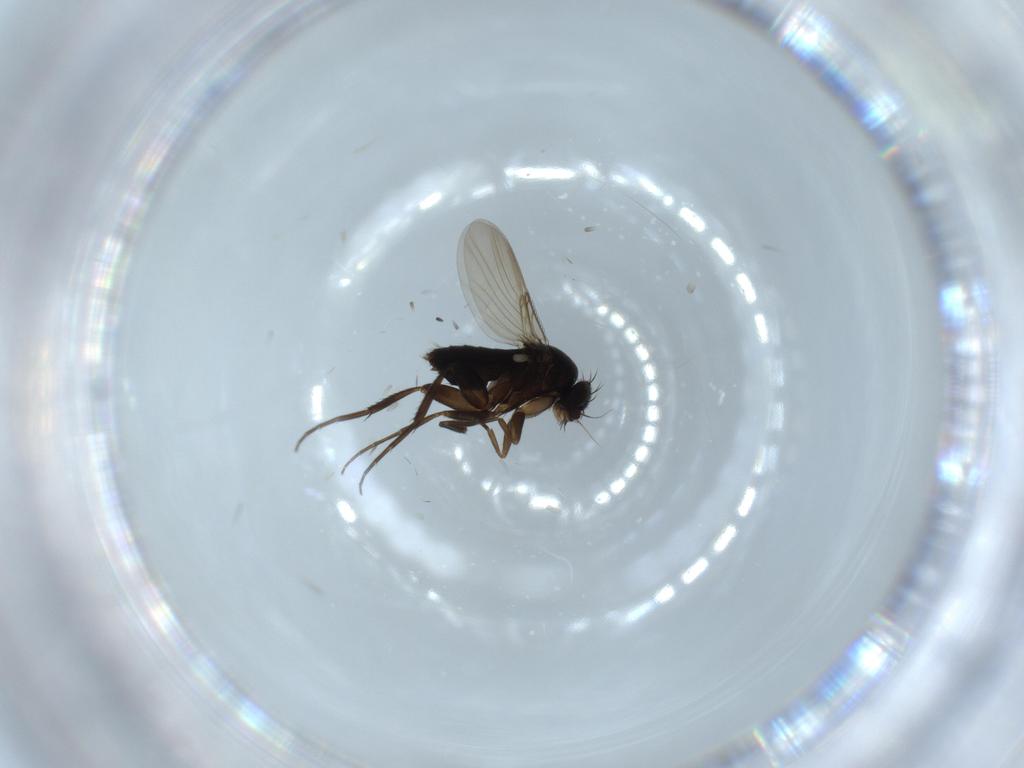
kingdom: Animalia
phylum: Arthropoda
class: Insecta
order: Diptera
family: Phoridae
